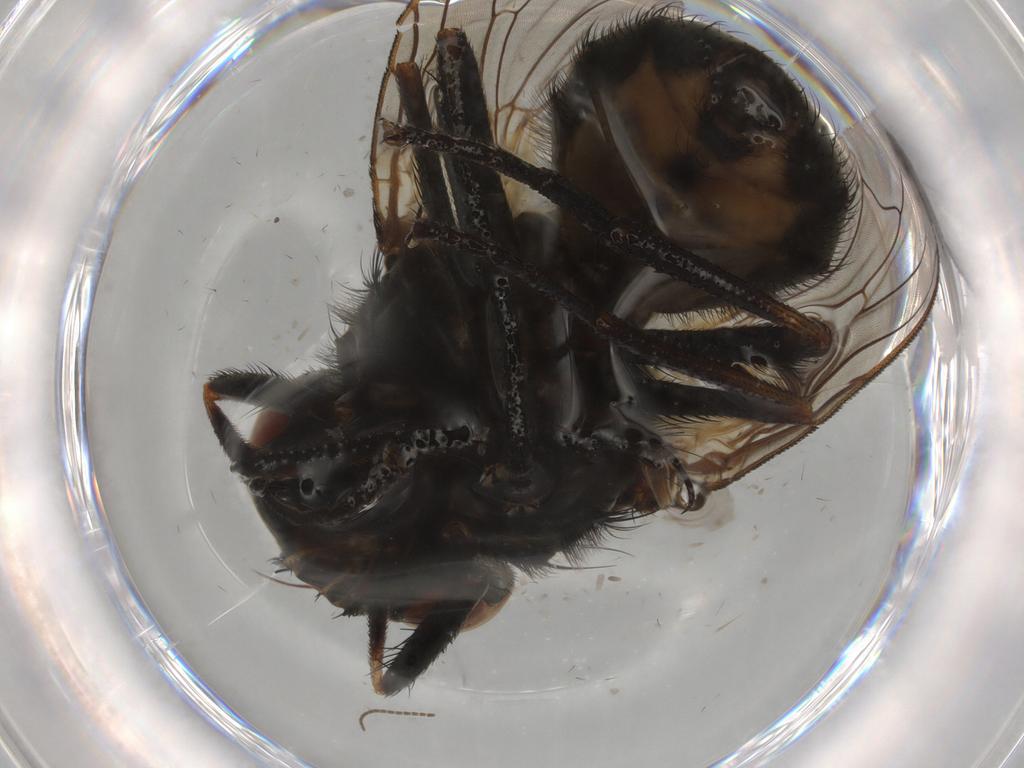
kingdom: Animalia
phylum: Arthropoda
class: Insecta
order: Diptera
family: Muscidae
